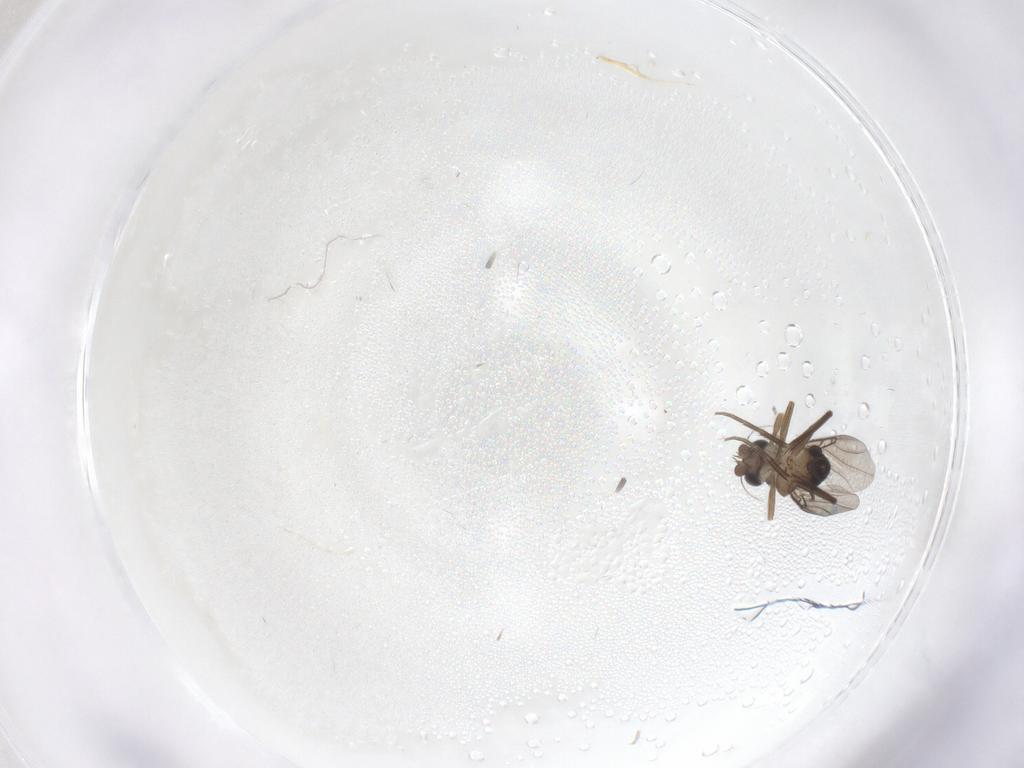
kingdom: Animalia
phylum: Arthropoda
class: Insecta
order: Diptera
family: Phoridae
